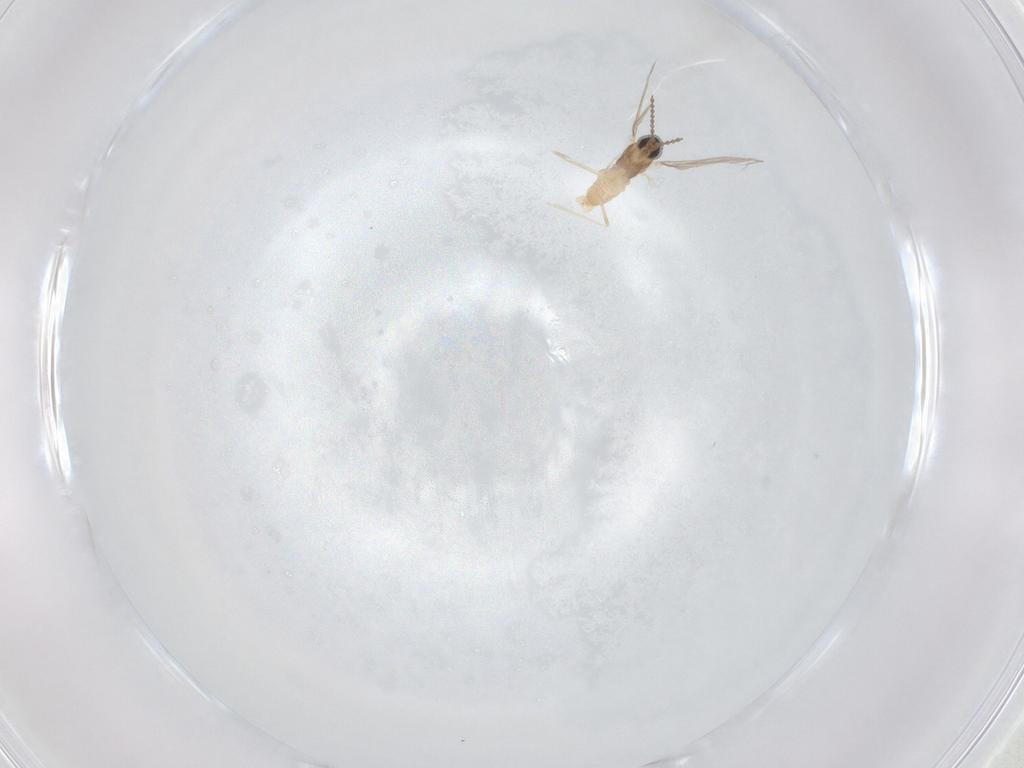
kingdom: Animalia
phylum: Arthropoda
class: Insecta
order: Diptera
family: Cecidomyiidae
